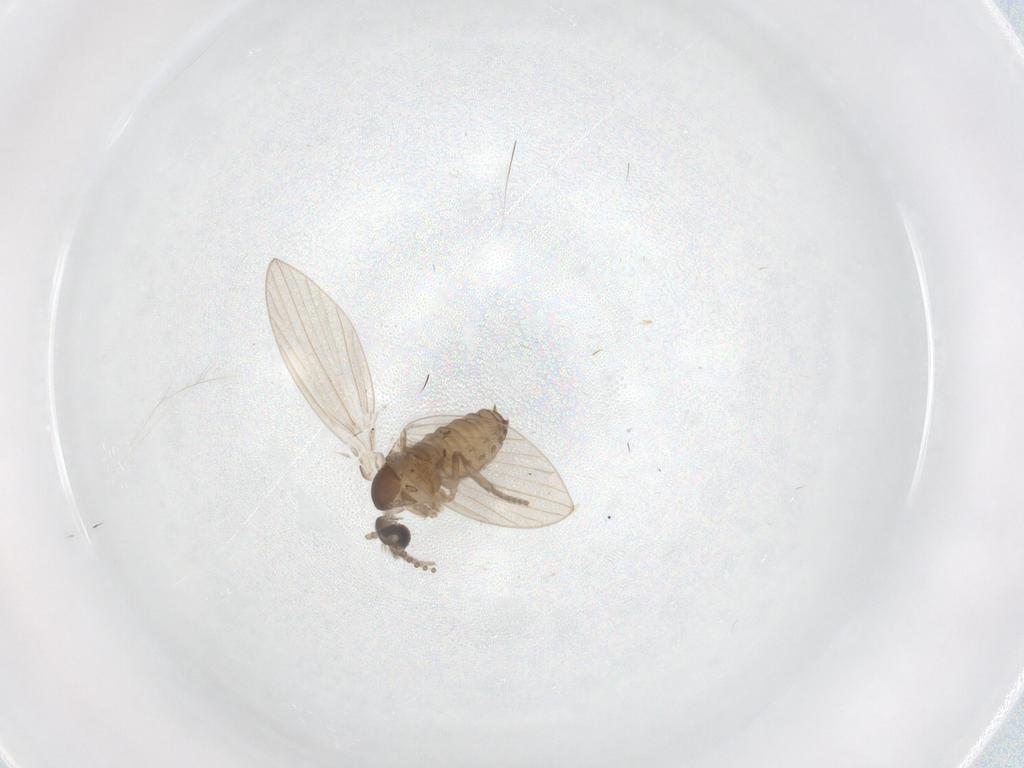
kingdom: Animalia
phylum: Arthropoda
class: Insecta
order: Diptera
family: Psychodidae
